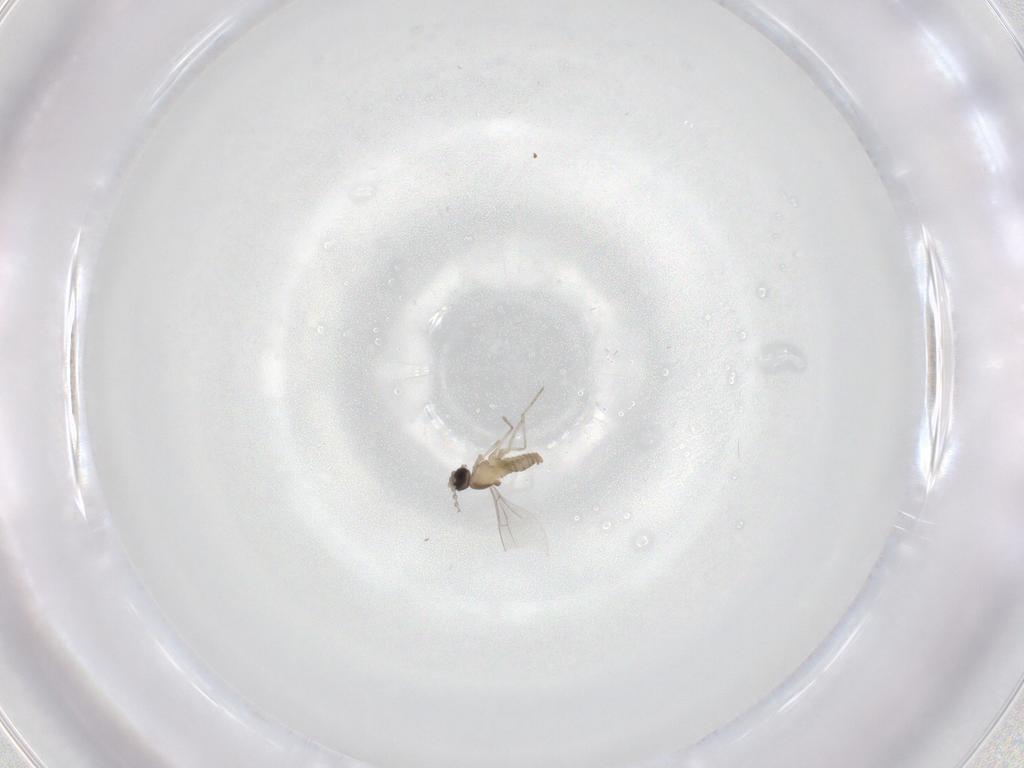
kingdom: Animalia
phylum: Arthropoda
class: Insecta
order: Diptera
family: Cecidomyiidae
